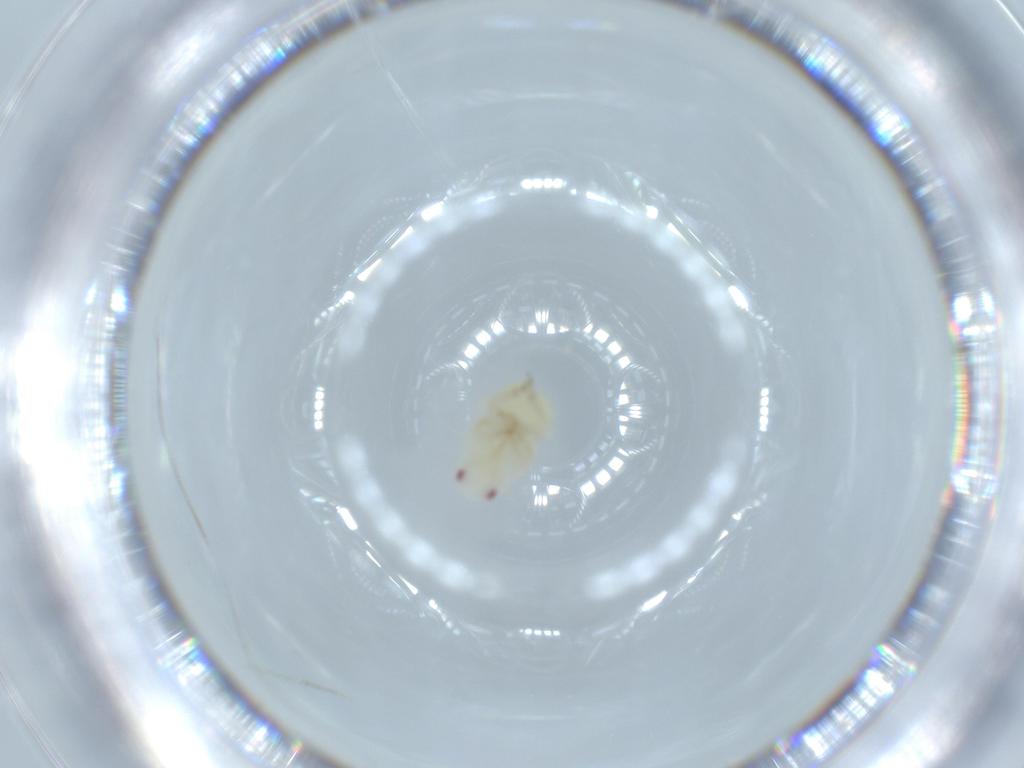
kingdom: Animalia
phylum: Arthropoda
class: Insecta
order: Hemiptera
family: Flatidae
